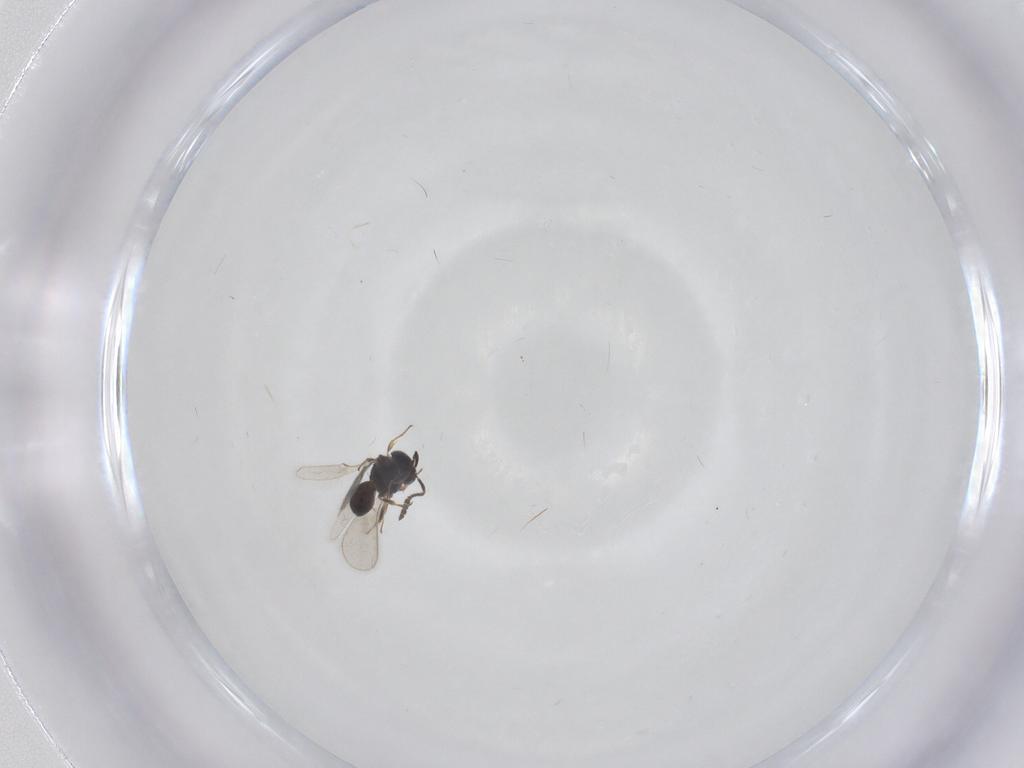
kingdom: Animalia
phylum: Arthropoda
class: Insecta
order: Hymenoptera
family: Scelionidae
